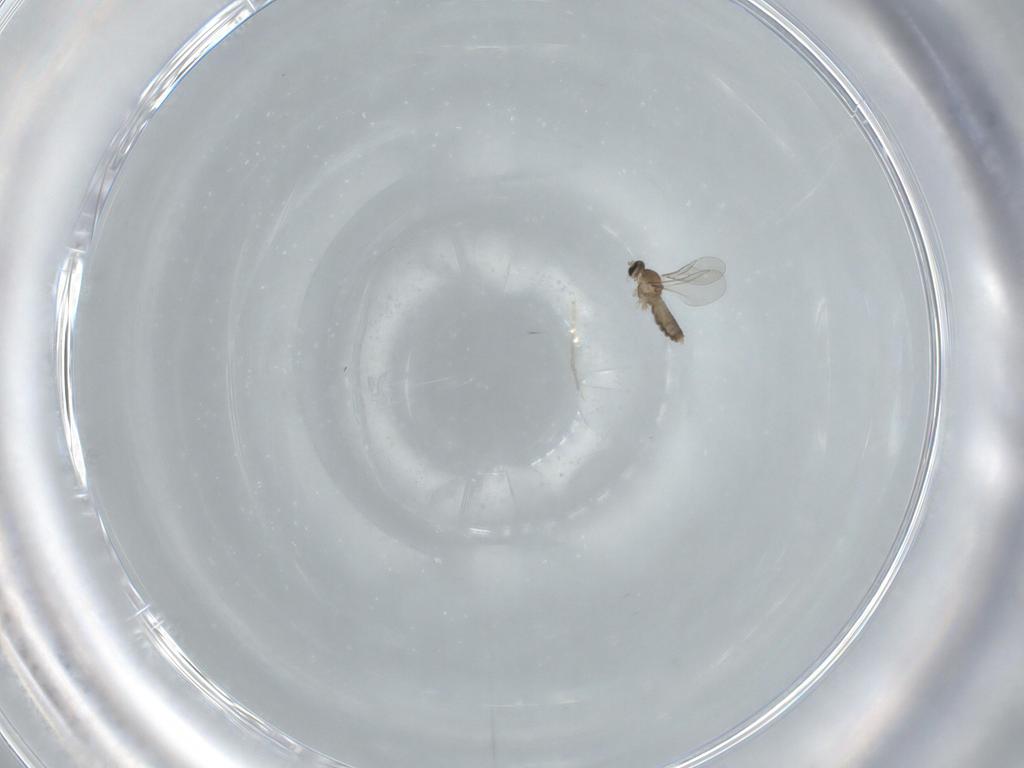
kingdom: Animalia
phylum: Arthropoda
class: Insecta
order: Diptera
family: Cecidomyiidae
